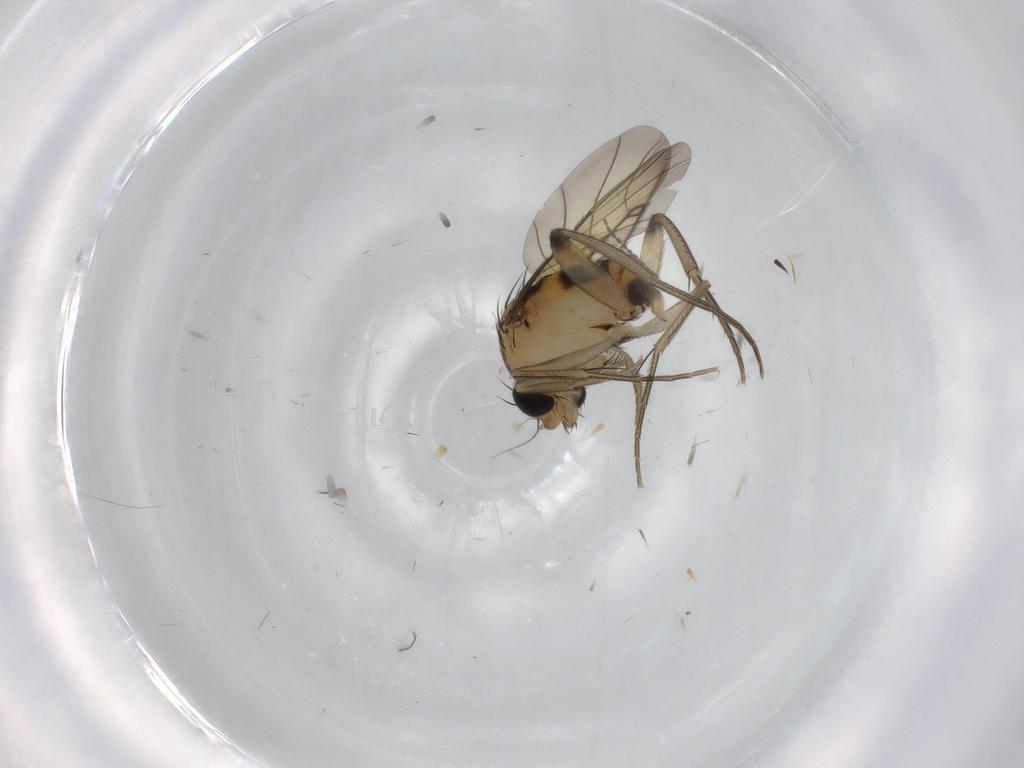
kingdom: Animalia
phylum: Arthropoda
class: Insecta
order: Diptera
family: Phoridae
